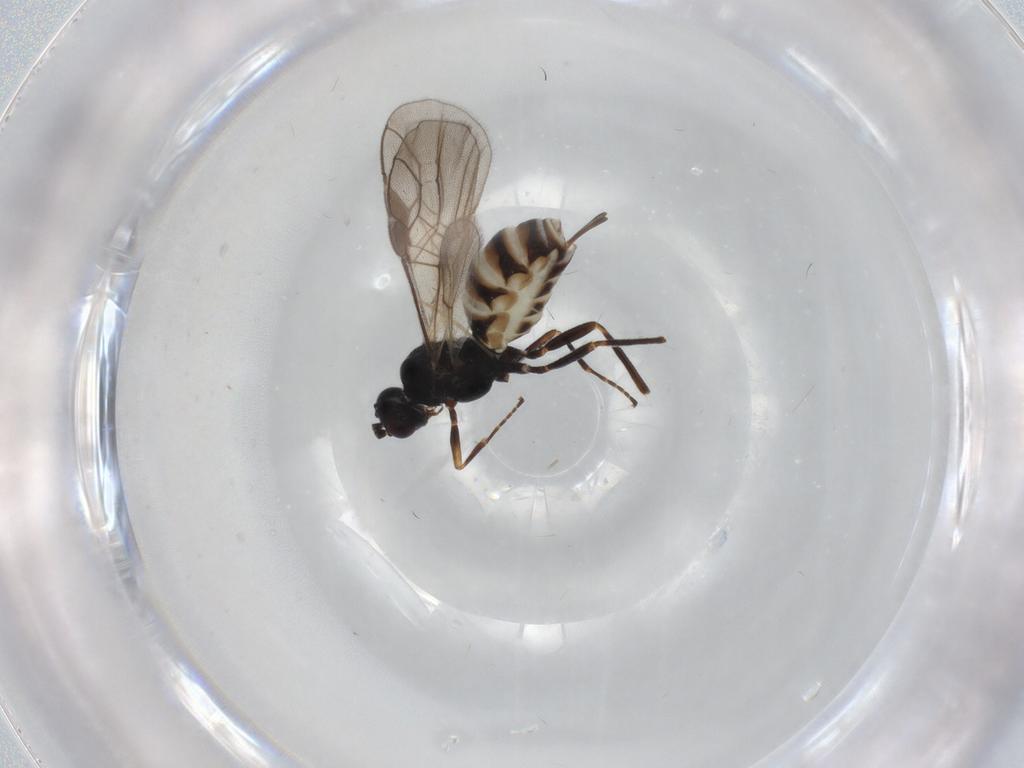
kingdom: Animalia
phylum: Arthropoda
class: Insecta
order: Hymenoptera
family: Braconidae
